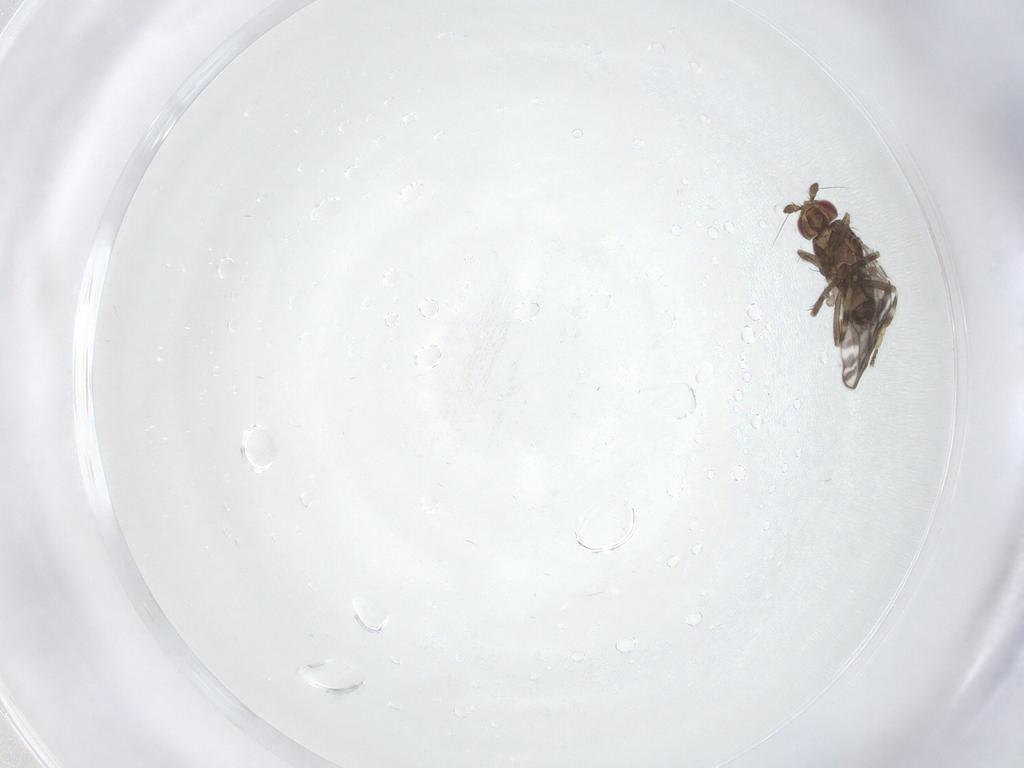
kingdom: Animalia
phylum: Arthropoda
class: Insecta
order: Diptera
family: Sphaeroceridae
